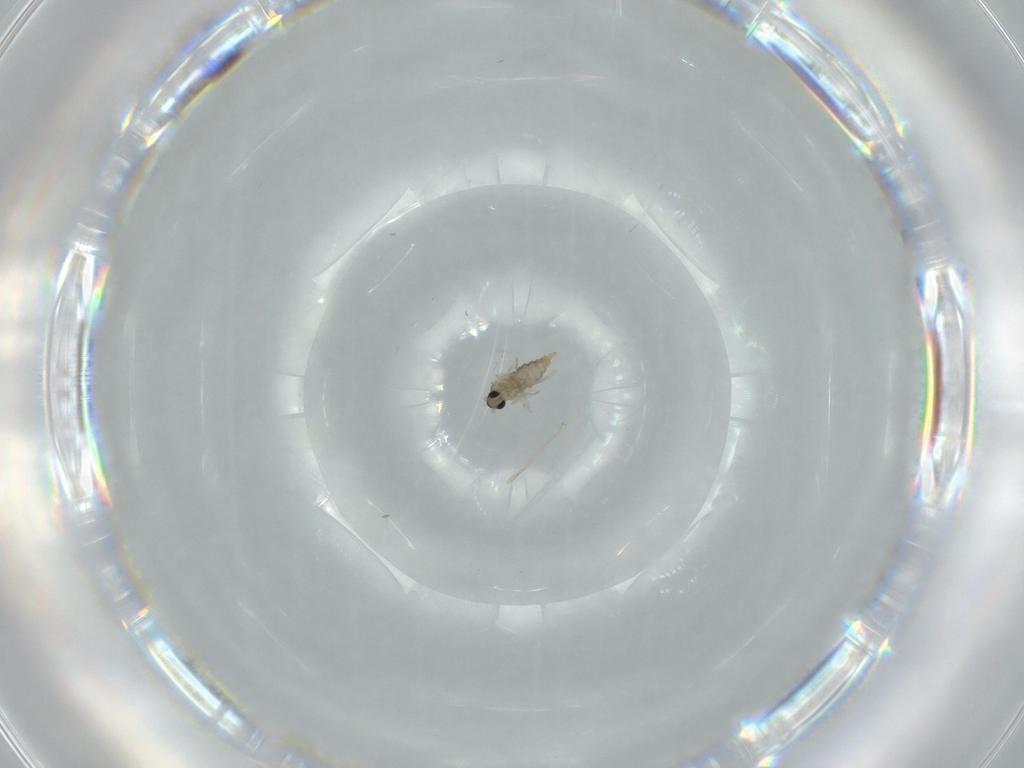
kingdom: Animalia
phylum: Arthropoda
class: Insecta
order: Diptera
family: Cecidomyiidae
